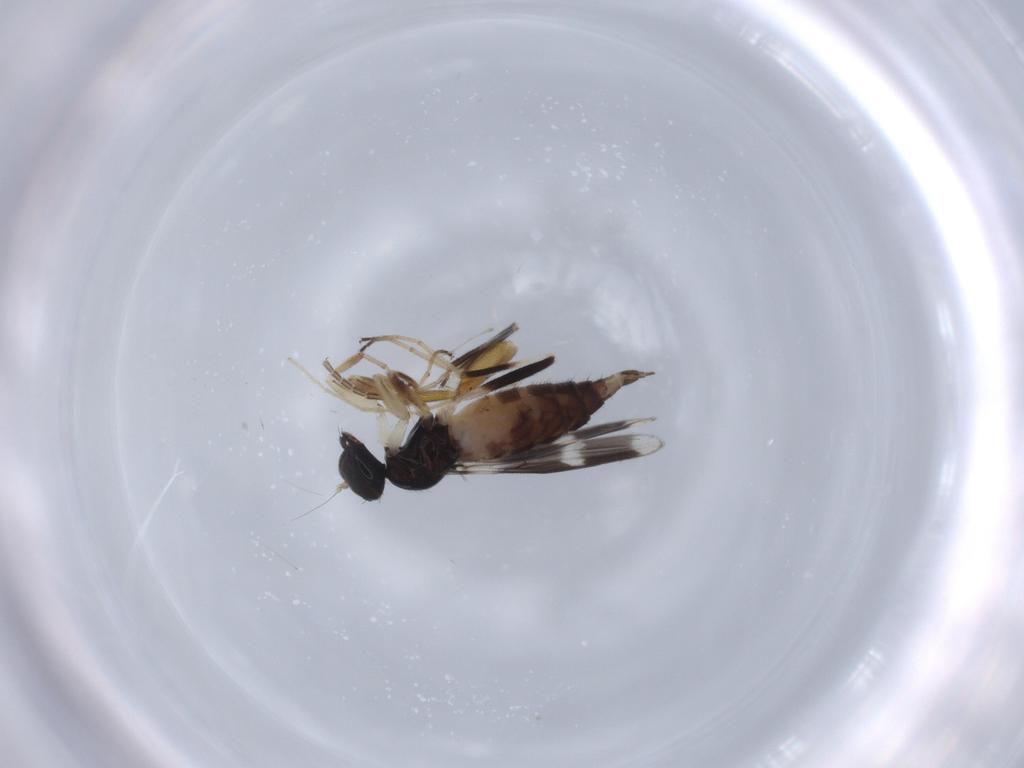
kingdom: Animalia
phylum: Arthropoda
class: Insecta
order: Diptera
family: Hybotidae
